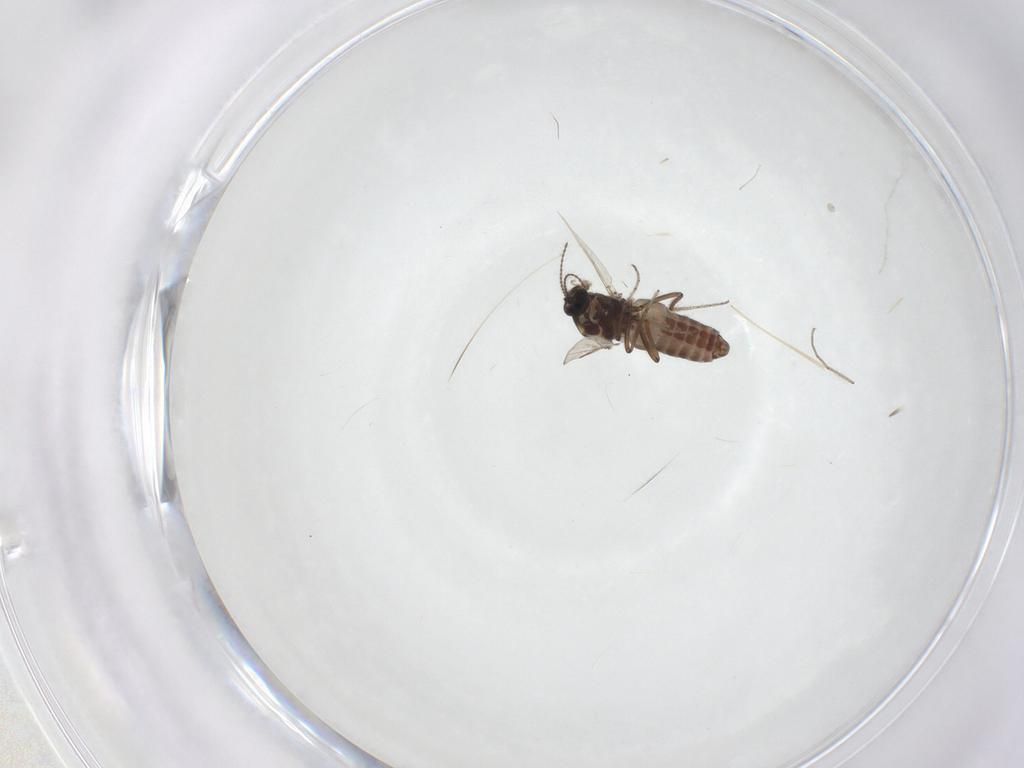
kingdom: Animalia
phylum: Arthropoda
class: Insecta
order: Diptera
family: Ceratopogonidae
